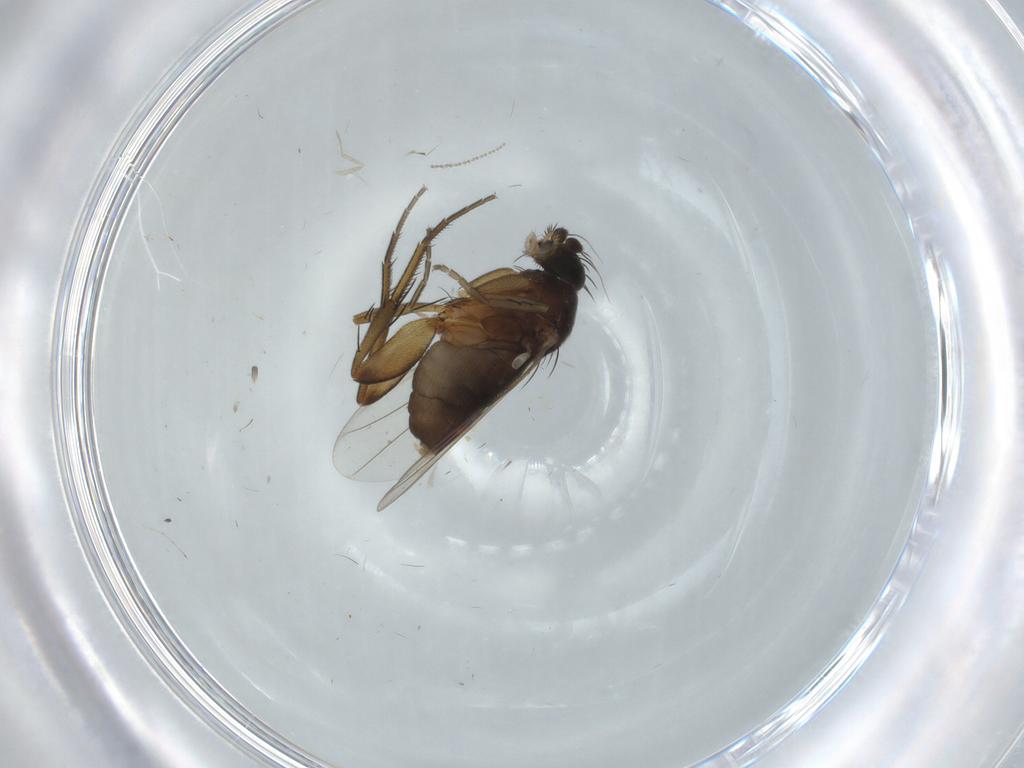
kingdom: Animalia
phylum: Arthropoda
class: Insecta
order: Diptera
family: Phoridae
